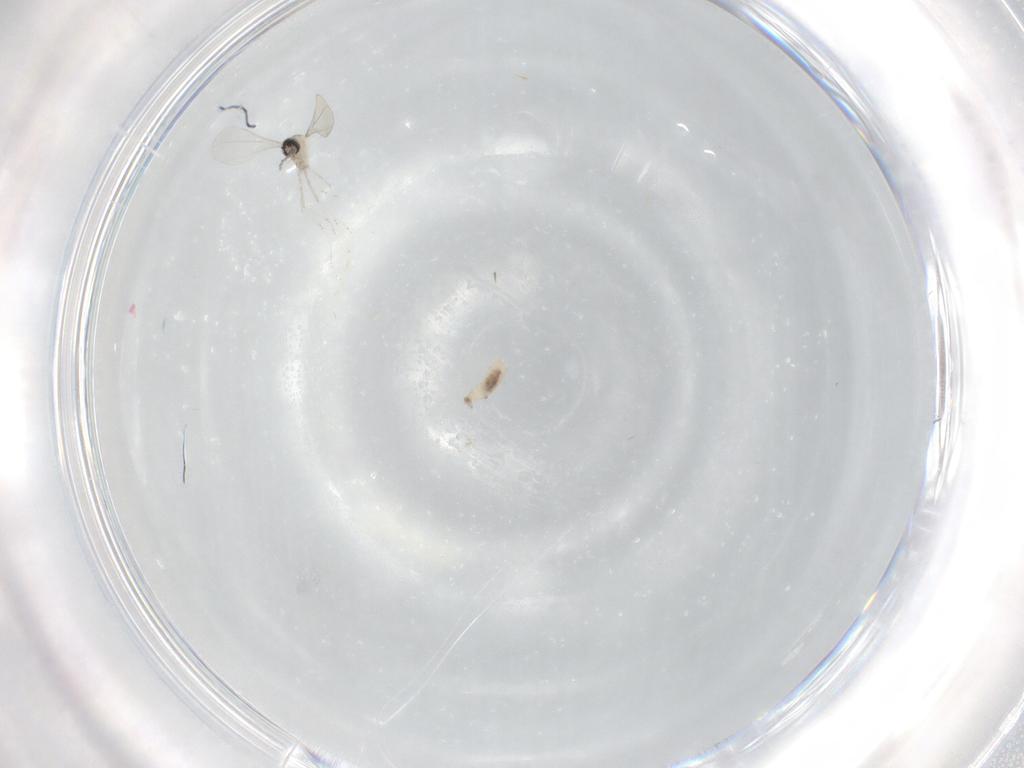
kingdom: Animalia
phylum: Arthropoda
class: Insecta
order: Diptera
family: Cecidomyiidae
